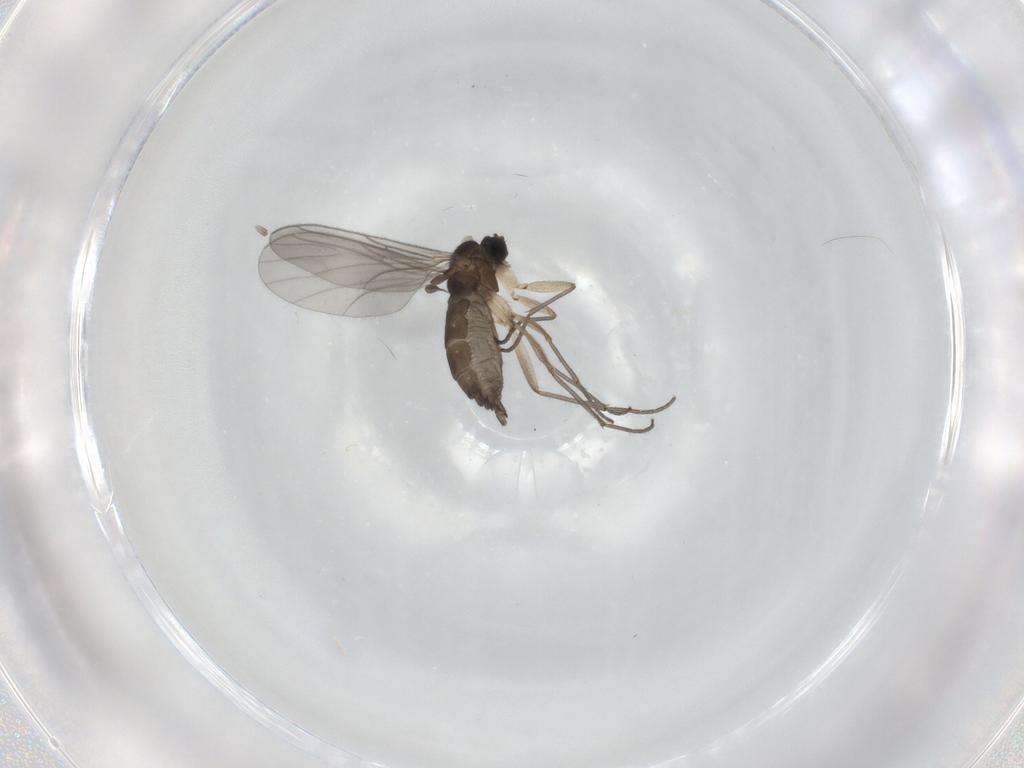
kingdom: Animalia
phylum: Arthropoda
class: Insecta
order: Diptera
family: Sciaridae
